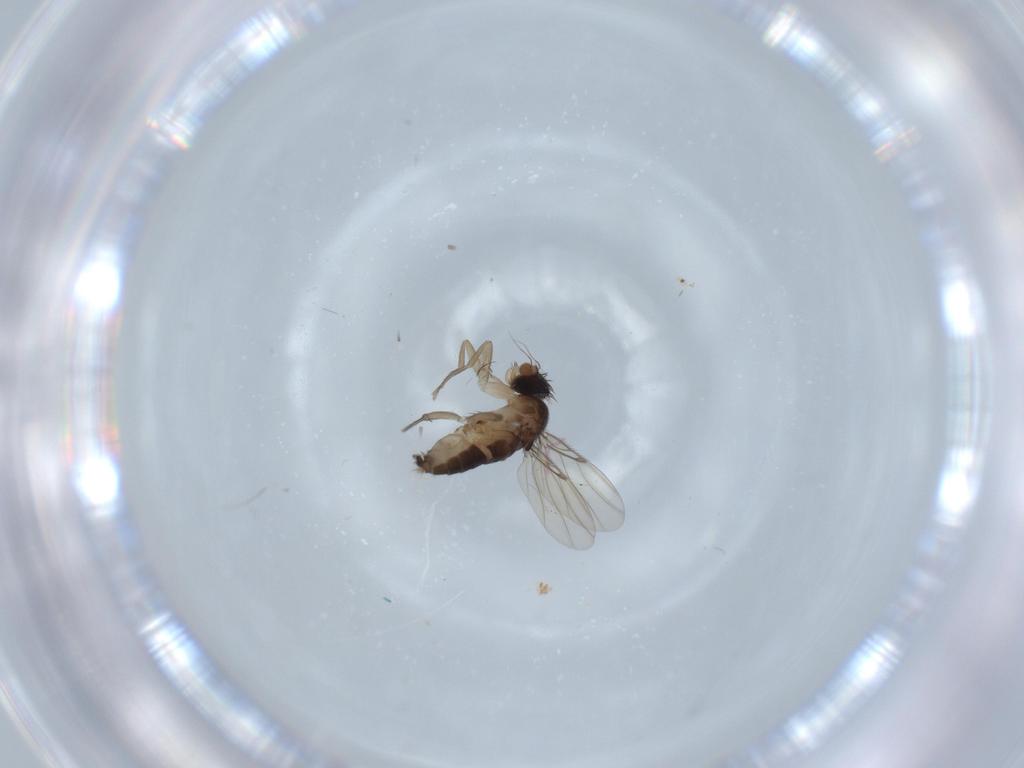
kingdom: Animalia
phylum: Arthropoda
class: Insecta
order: Diptera
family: Phoridae
